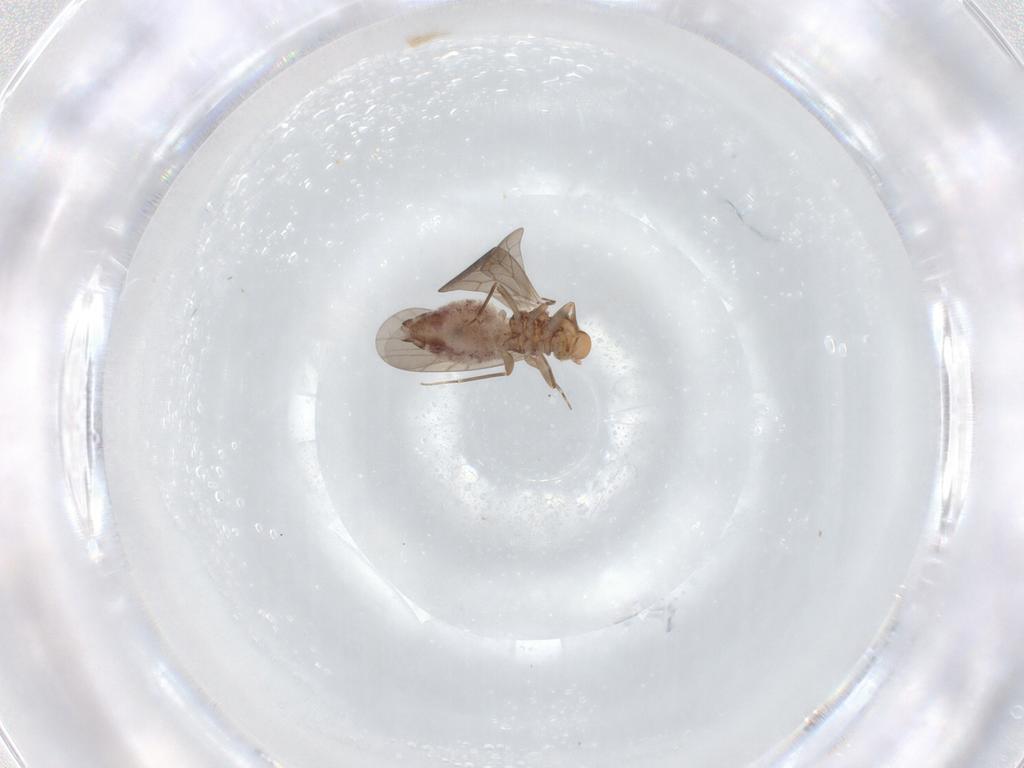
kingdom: Animalia
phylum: Arthropoda
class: Insecta
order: Psocodea
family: Lachesillidae
